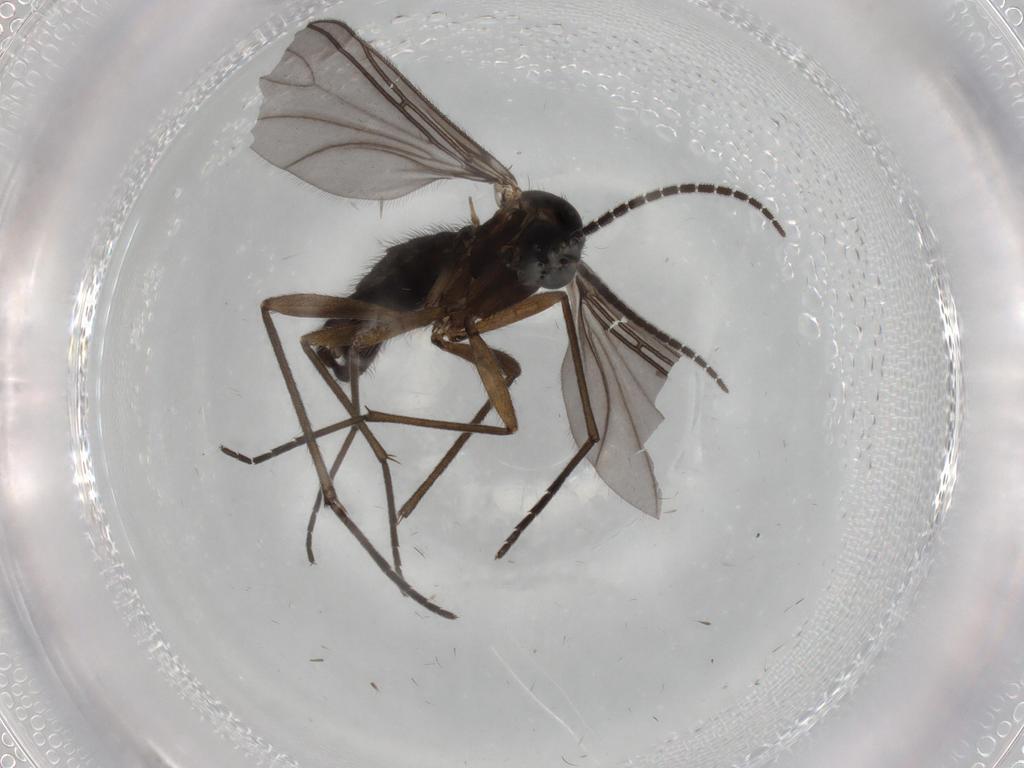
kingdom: Animalia
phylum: Arthropoda
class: Insecta
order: Diptera
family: Sciaridae
